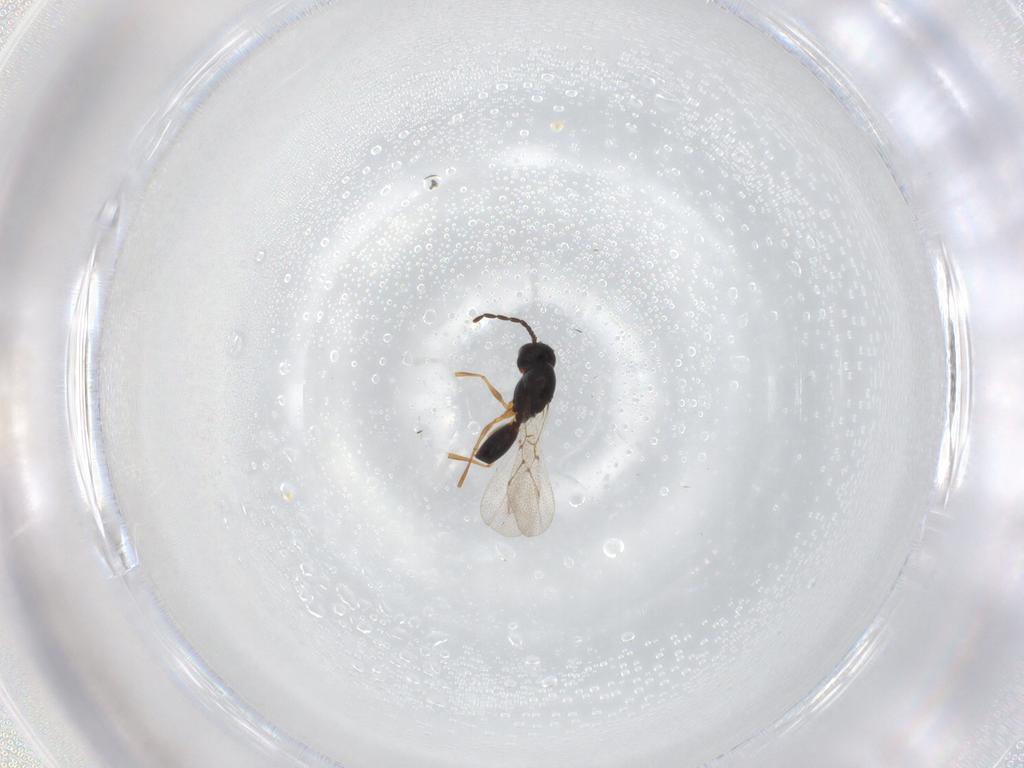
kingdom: Animalia
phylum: Arthropoda
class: Insecta
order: Hymenoptera
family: Figitidae
